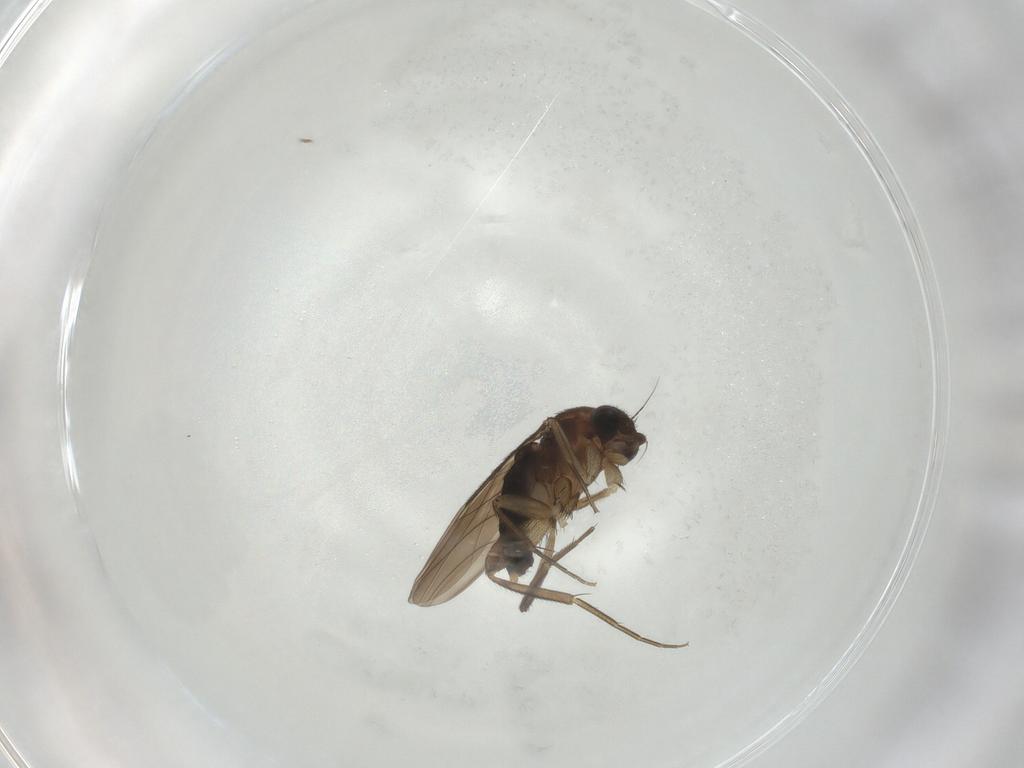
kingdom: Animalia
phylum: Arthropoda
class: Insecta
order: Diptera
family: Phoridae
